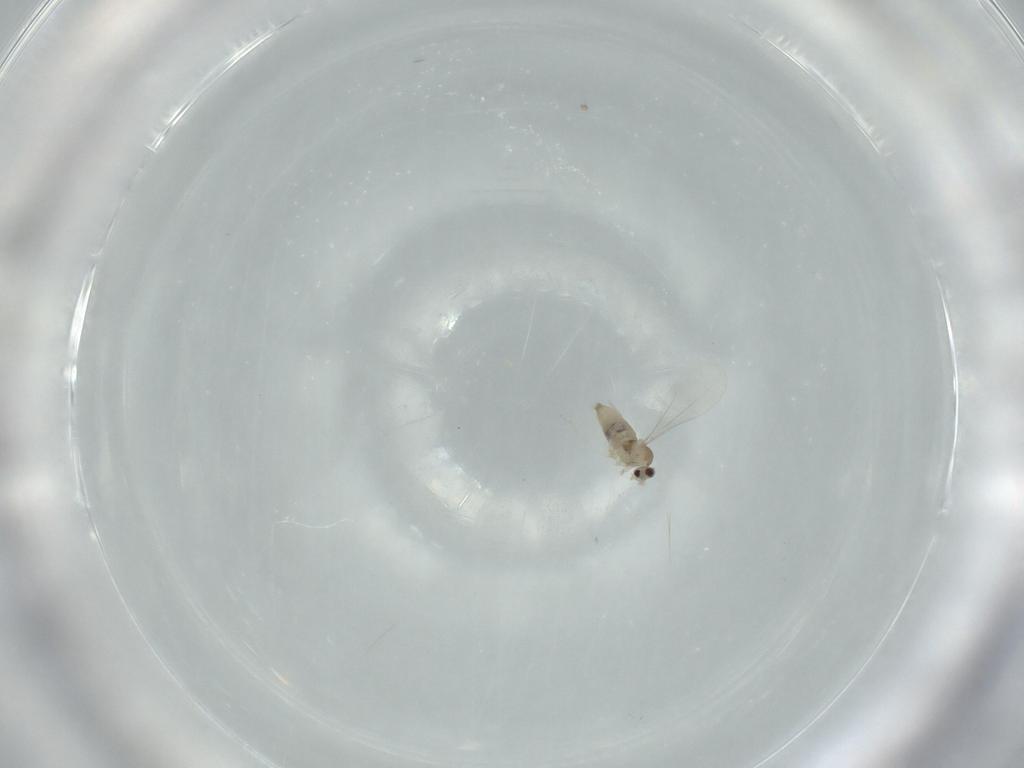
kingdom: Animalia
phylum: Arthropoda
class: Insecta
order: Diptera
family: Cecidomyiidae
